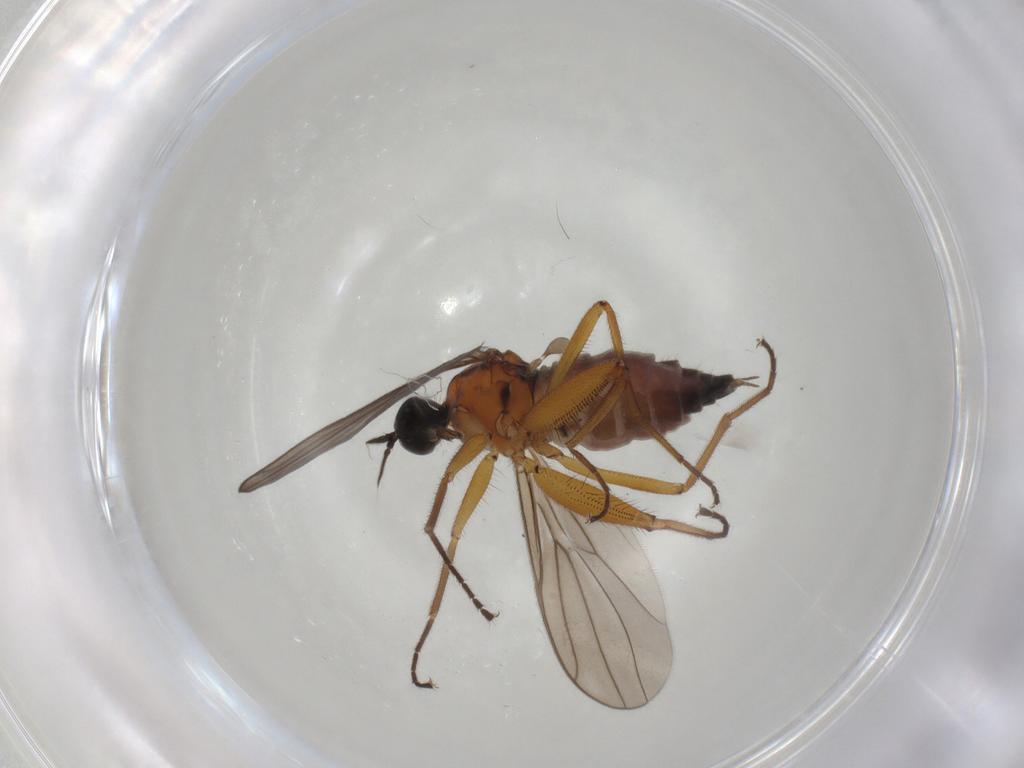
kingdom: Animalia
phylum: Arthropoda
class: Insecta
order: Diptera
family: Hybotidae
